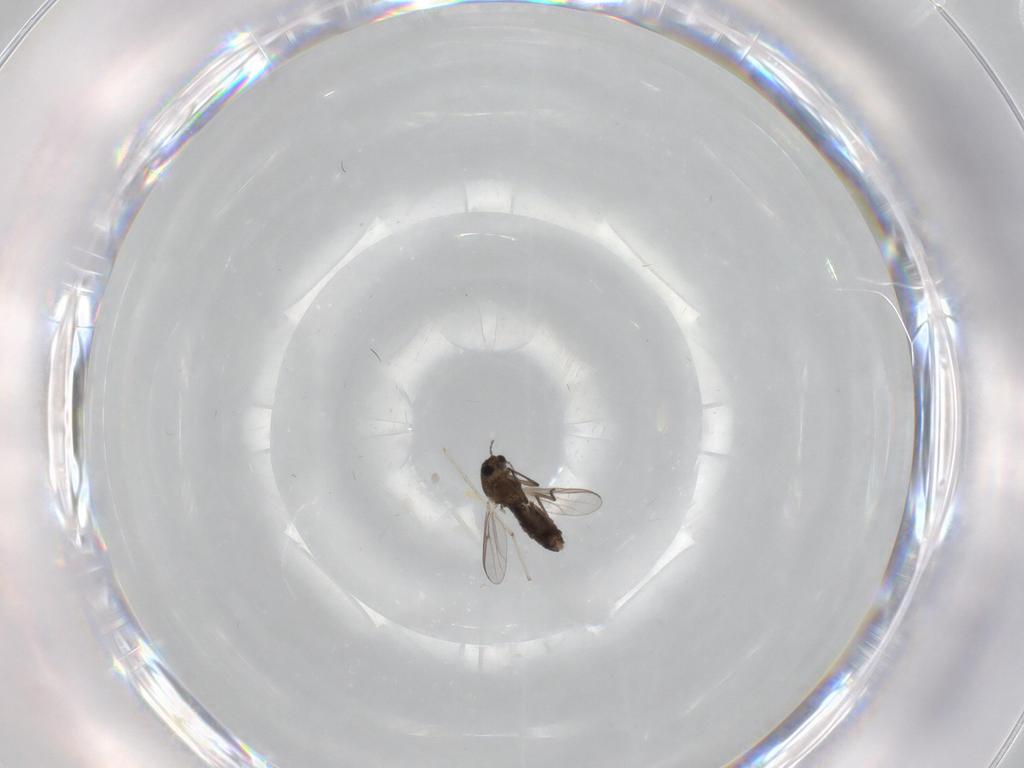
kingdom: Animalia
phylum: Arthropoda
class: Insecta
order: Diptera
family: Chironomidae
